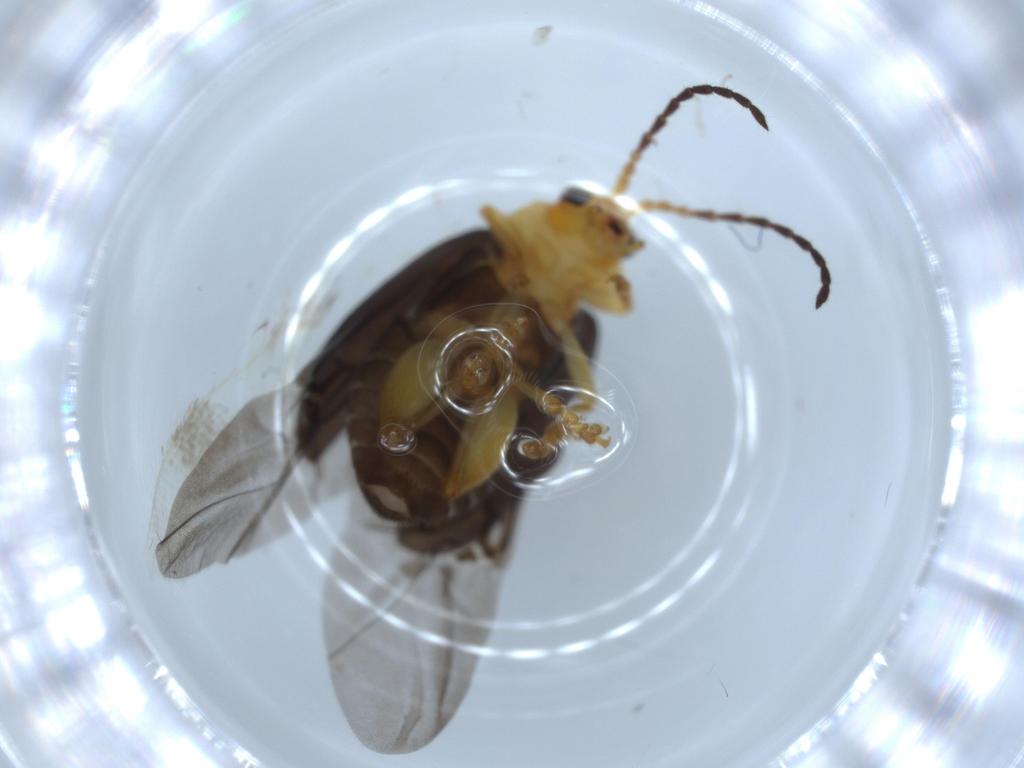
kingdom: Animalia
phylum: Arthropoda
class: Insecta
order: Coleoptera
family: Chrysomelidae
